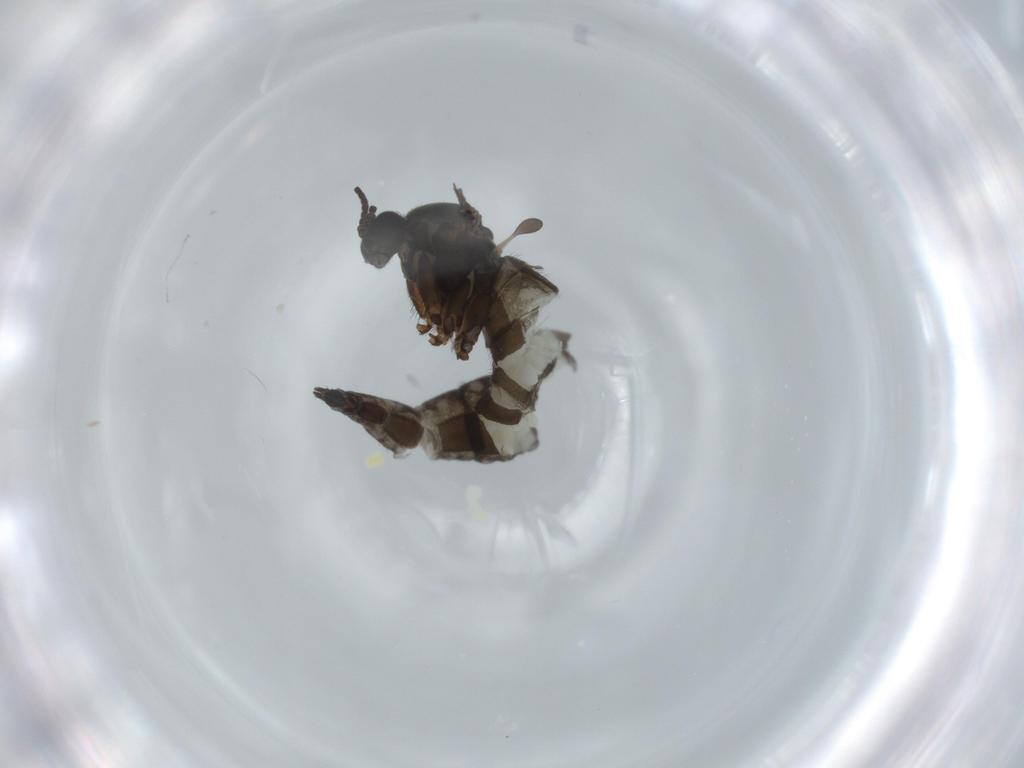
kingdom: Animalia
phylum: Arthropoda
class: Insecta
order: Diptera
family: Sciaridae
